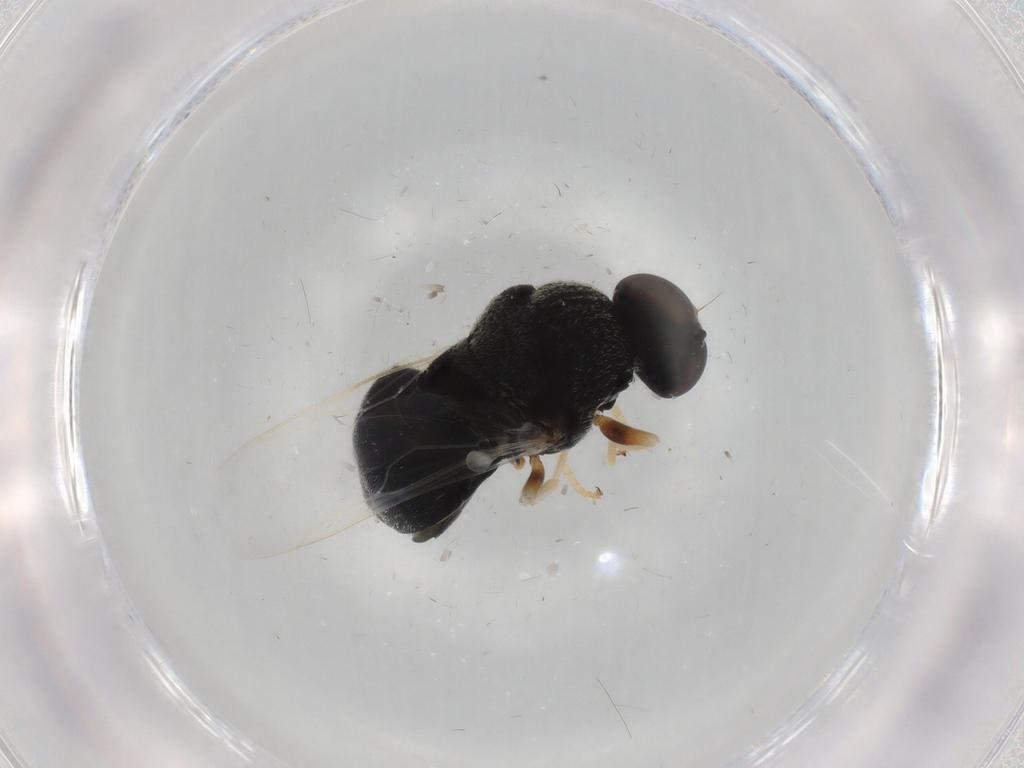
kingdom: Animalia
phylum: Arthropoda
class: Insecta
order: Diptera
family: Stratiomyidae
